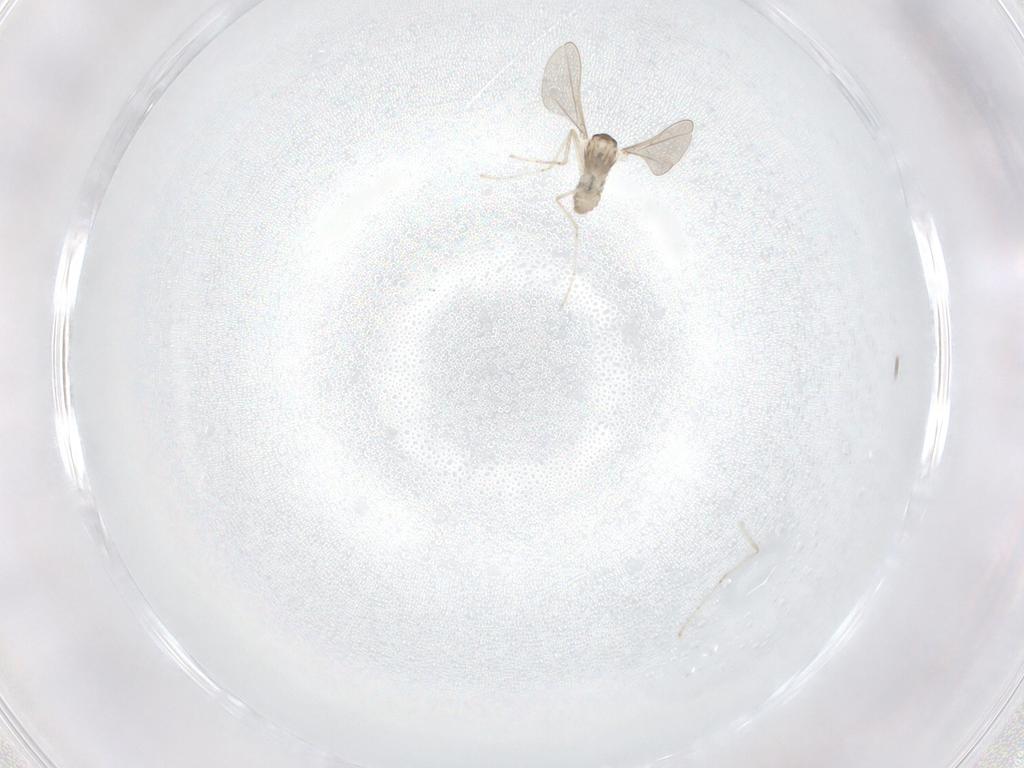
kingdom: Animalia
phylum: Arthropoda
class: Insecta
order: Diptera
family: Cecidomyiidae
